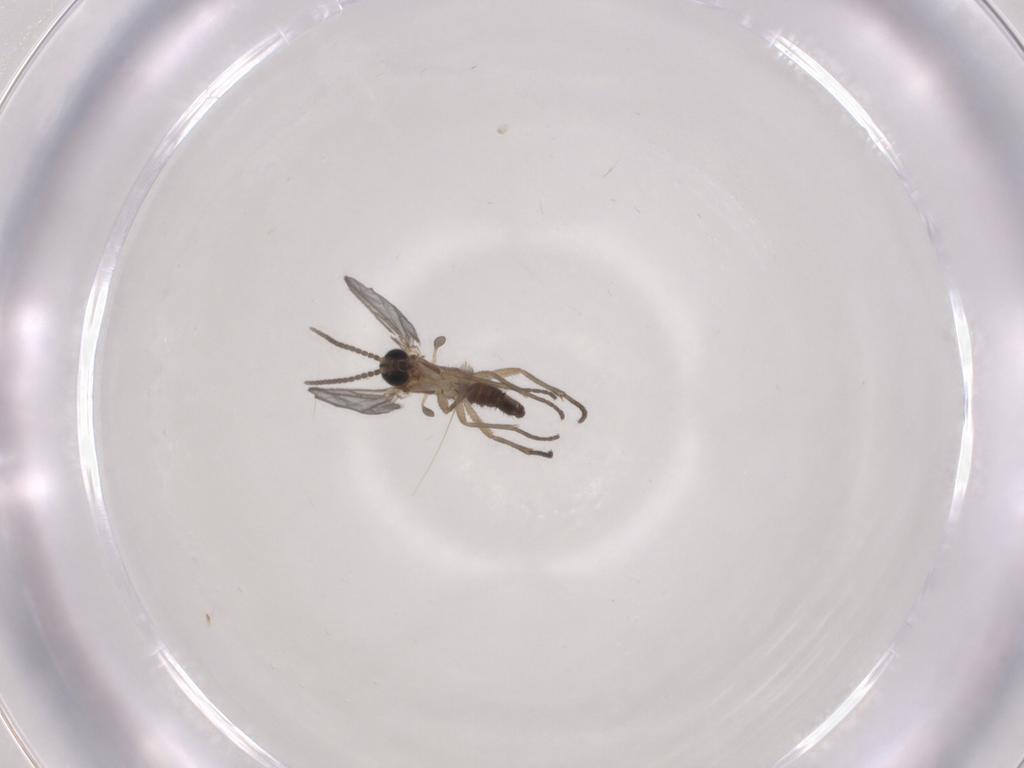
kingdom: Animalia
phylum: Arthropoda
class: Insecta
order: Diptera
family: Sciaridae
